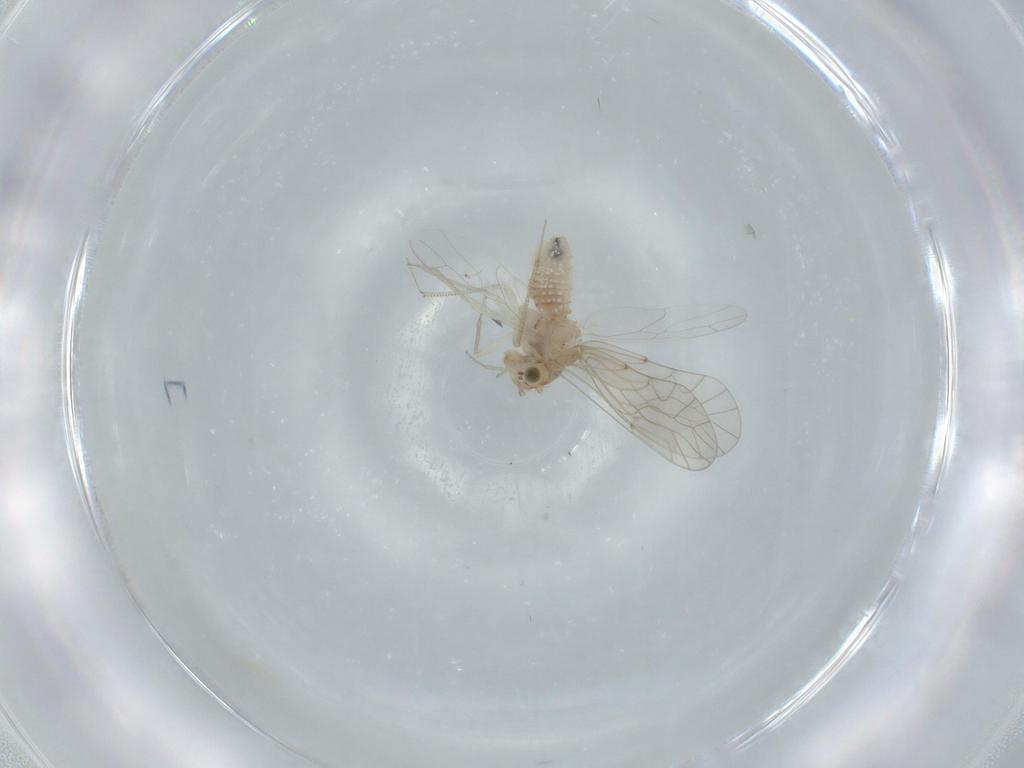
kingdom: Animalia
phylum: Arthropoda
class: Insecta
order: Psocodea
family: Lachesillidae
